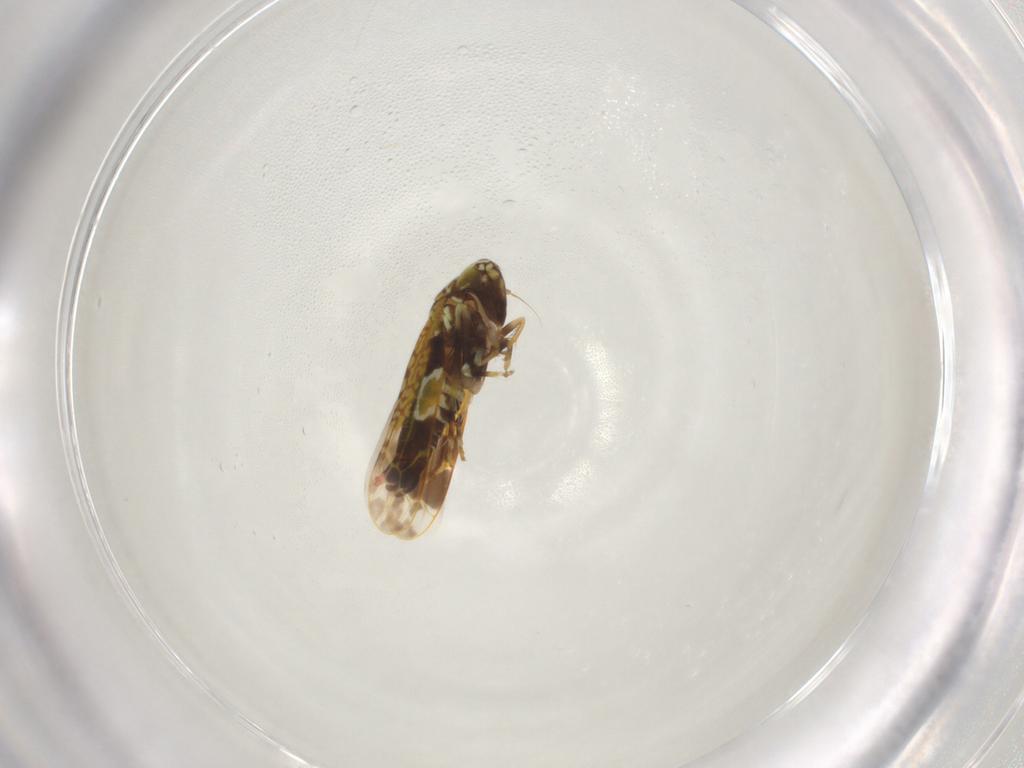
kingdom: Animalia
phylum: Arthropoda
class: Insecta
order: Hemiptera
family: Cicadellidae
